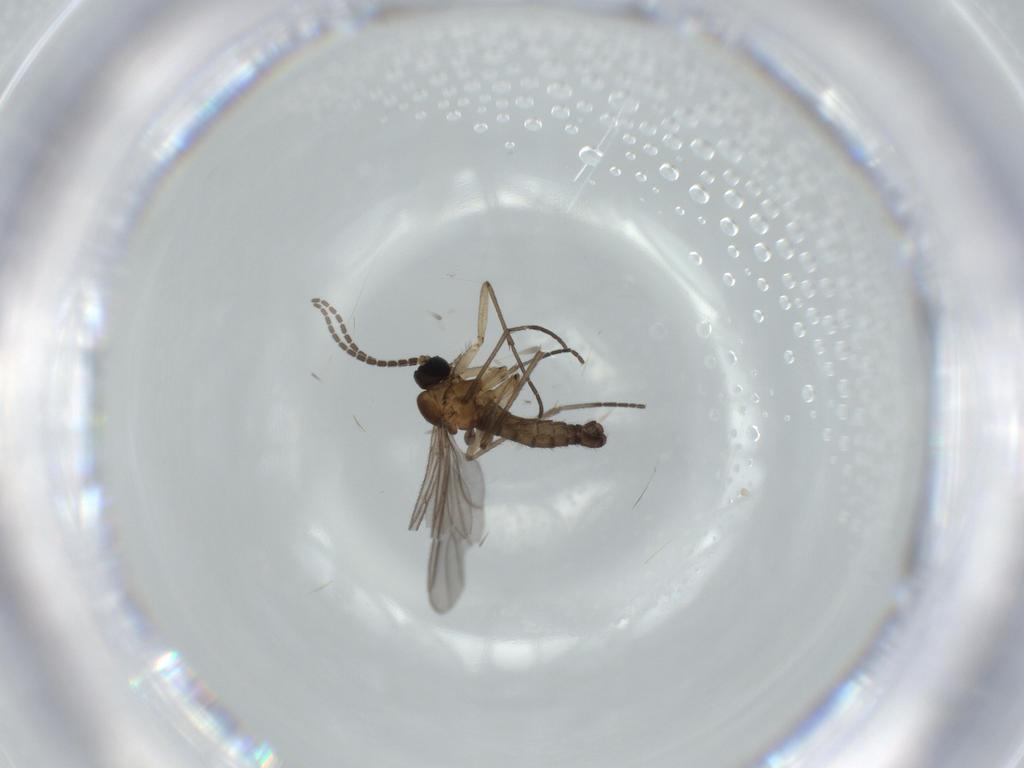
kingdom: Animalia
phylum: Arthropoda
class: Insecta
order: Diptera
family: Sciaridae
